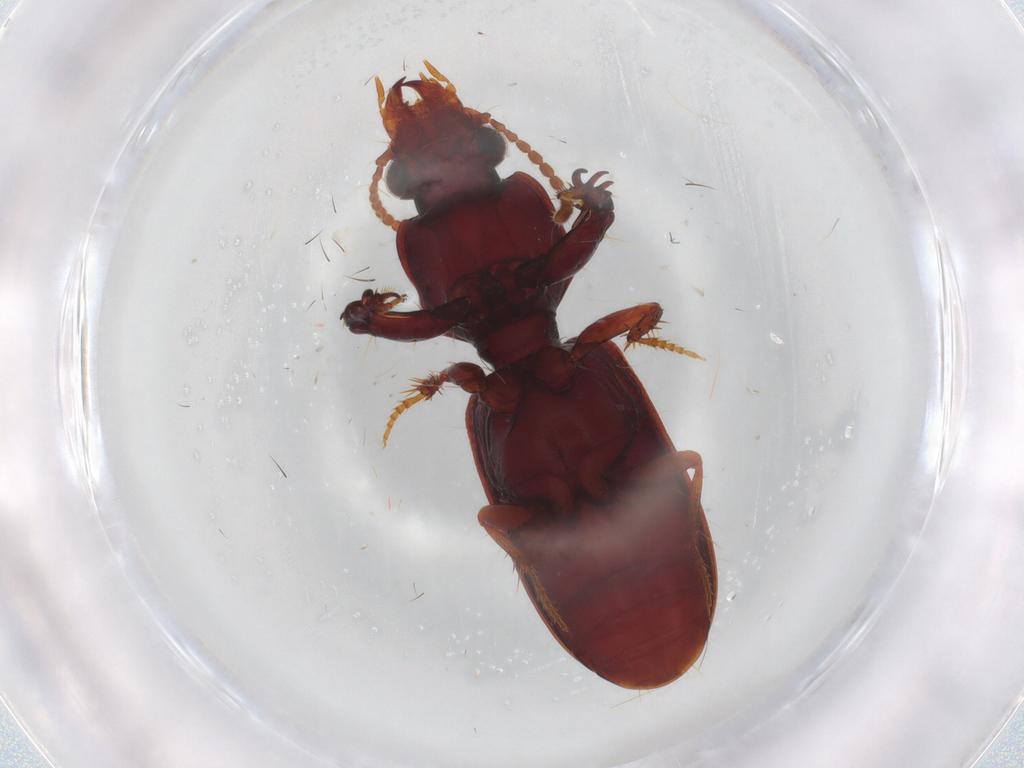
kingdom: Animalia
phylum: Arthropoda
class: Insecta
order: Coleoptera
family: Carabidae
